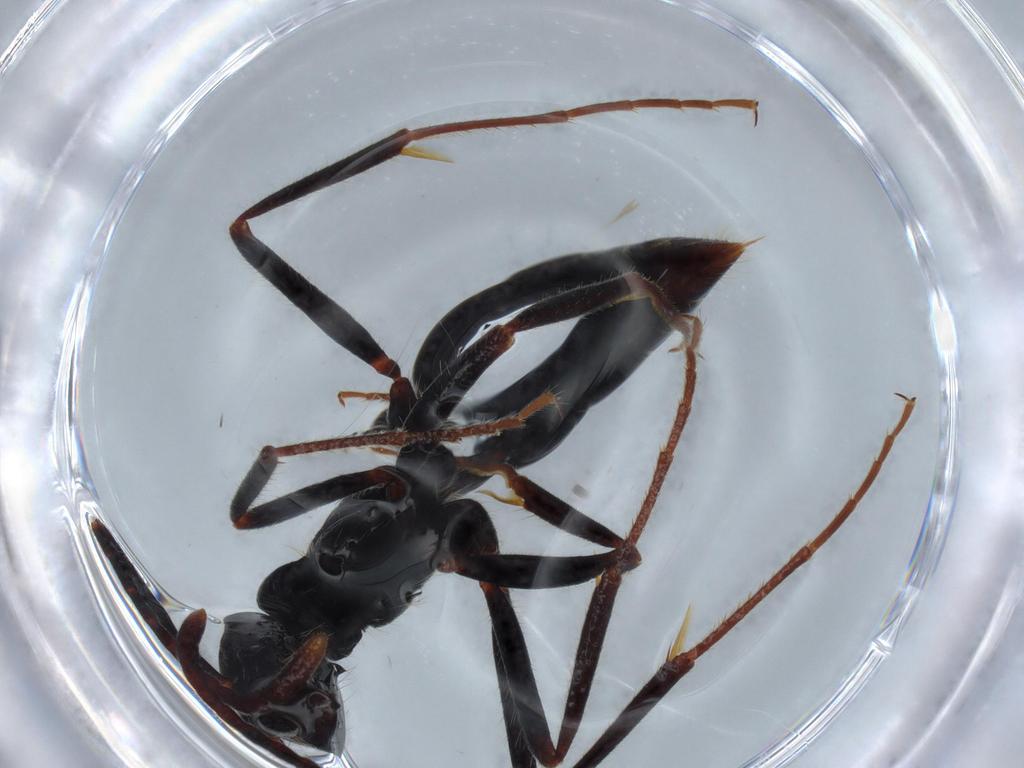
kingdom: Animalia
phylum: Arthropoda
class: Insecta
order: Hymenoptera
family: Formicidae
